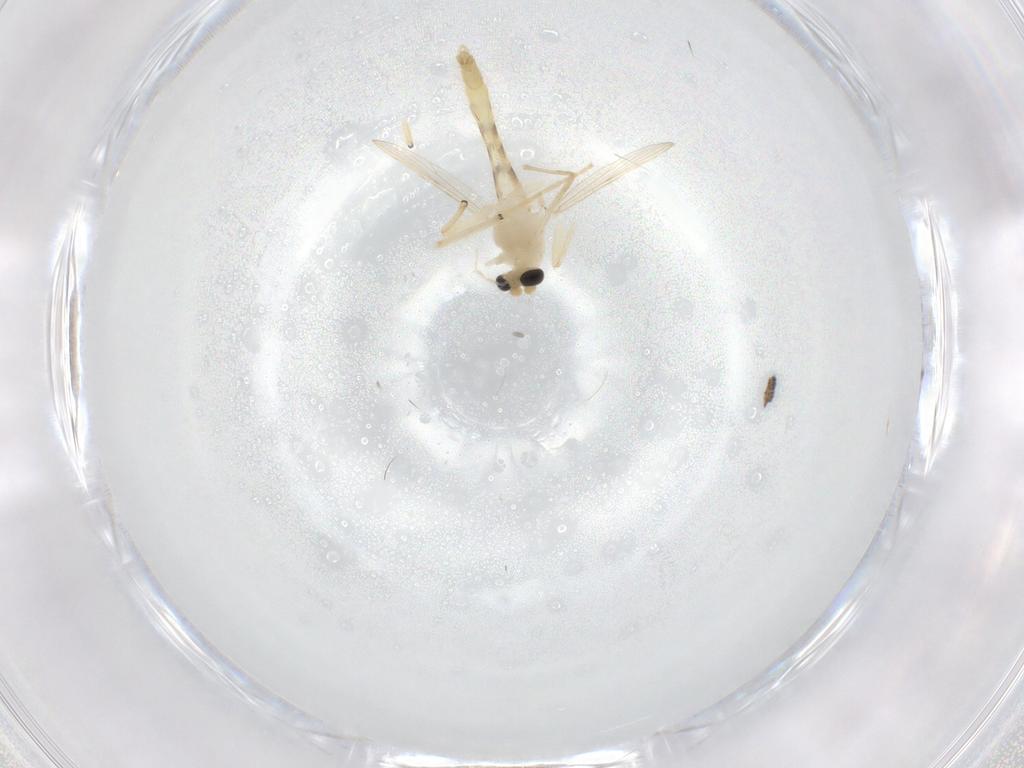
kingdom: Animalia
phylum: Arthropoda
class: Insecta
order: Diptera
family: Chironomidae
